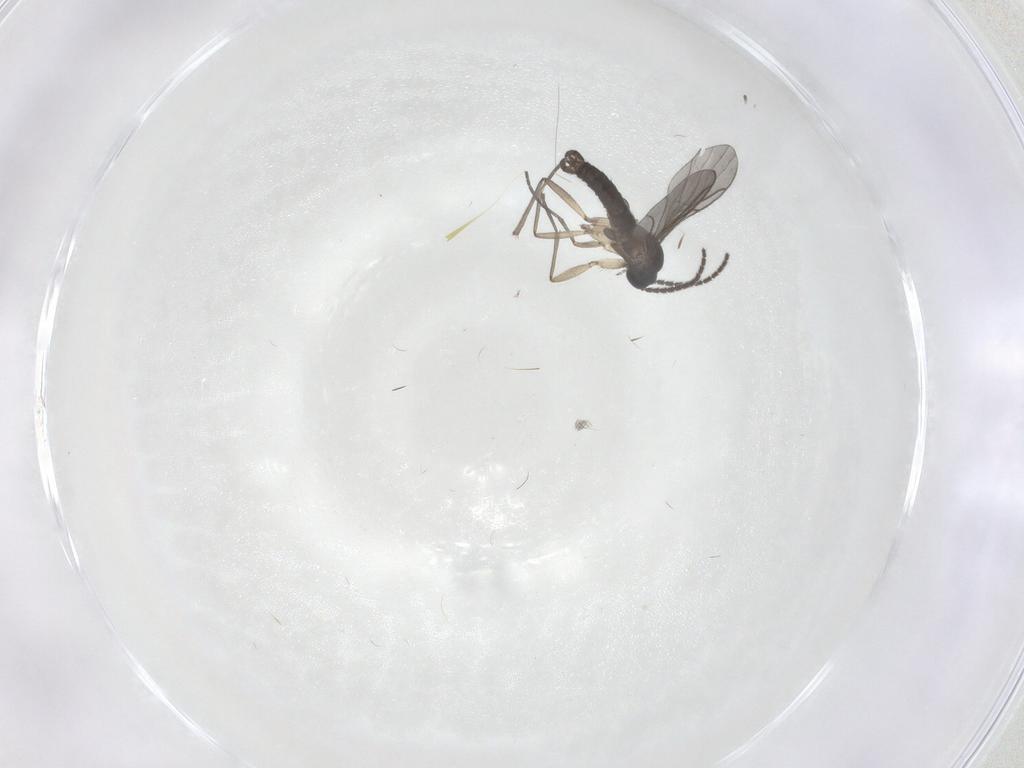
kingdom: Animalia
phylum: Arthropoda
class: Insecta
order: Diptera
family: Sciaridae
